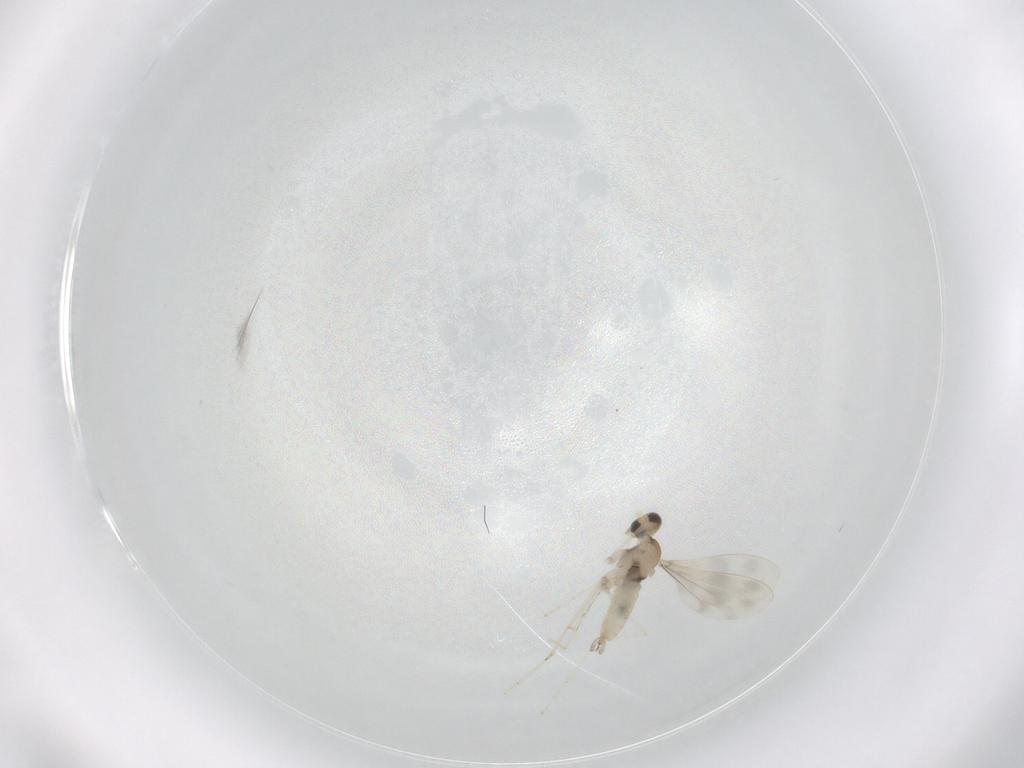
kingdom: Animalia
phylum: Arthropoda
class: Insecta
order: Diptera
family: Cecidomyiidae
